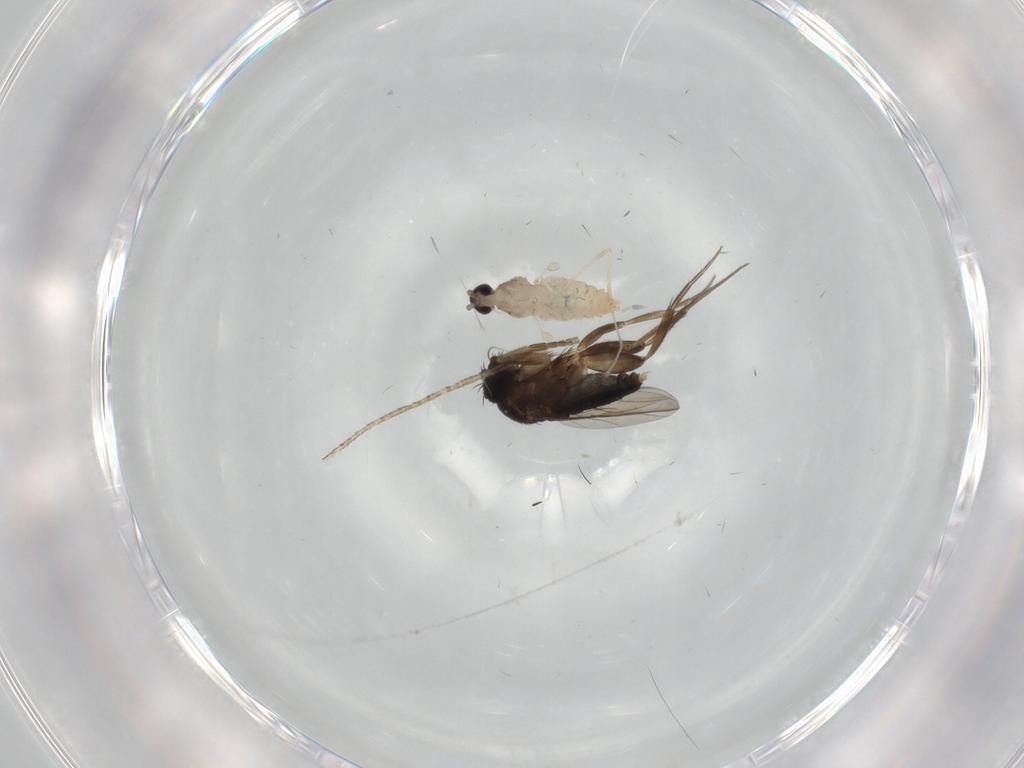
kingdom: Animalia
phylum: Arthropoda
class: Insecta
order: Diptera
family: Phoridae
